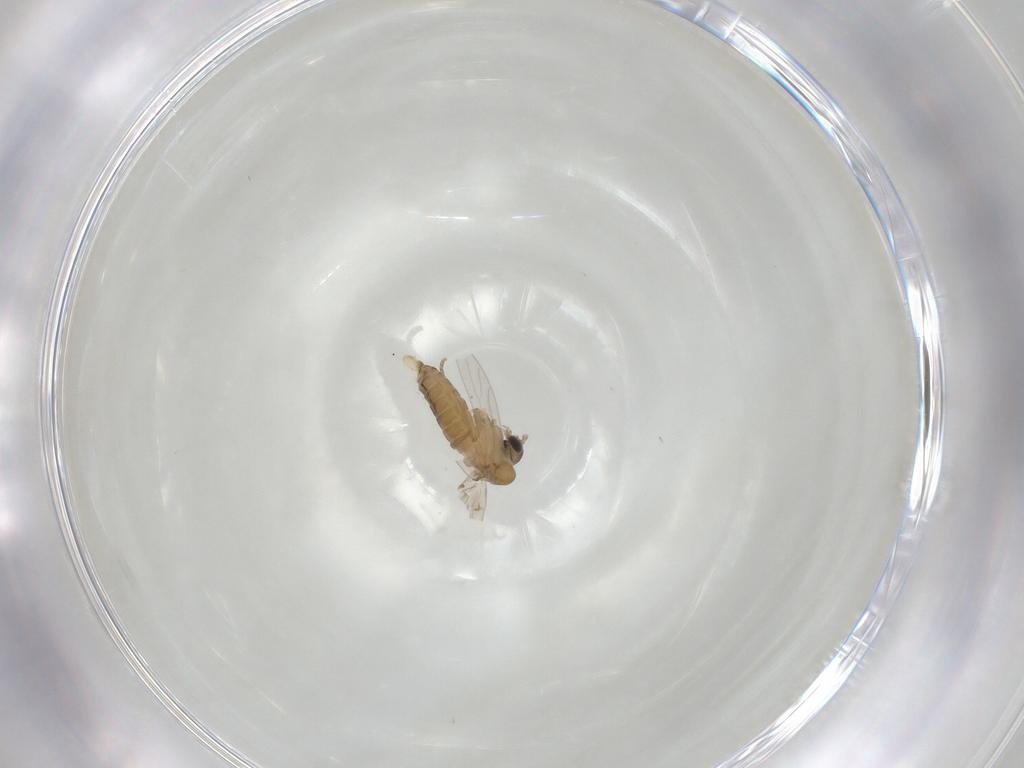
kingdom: Animalia
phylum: Arthropoda
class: Insecta
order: Diptera
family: Psychodidae
